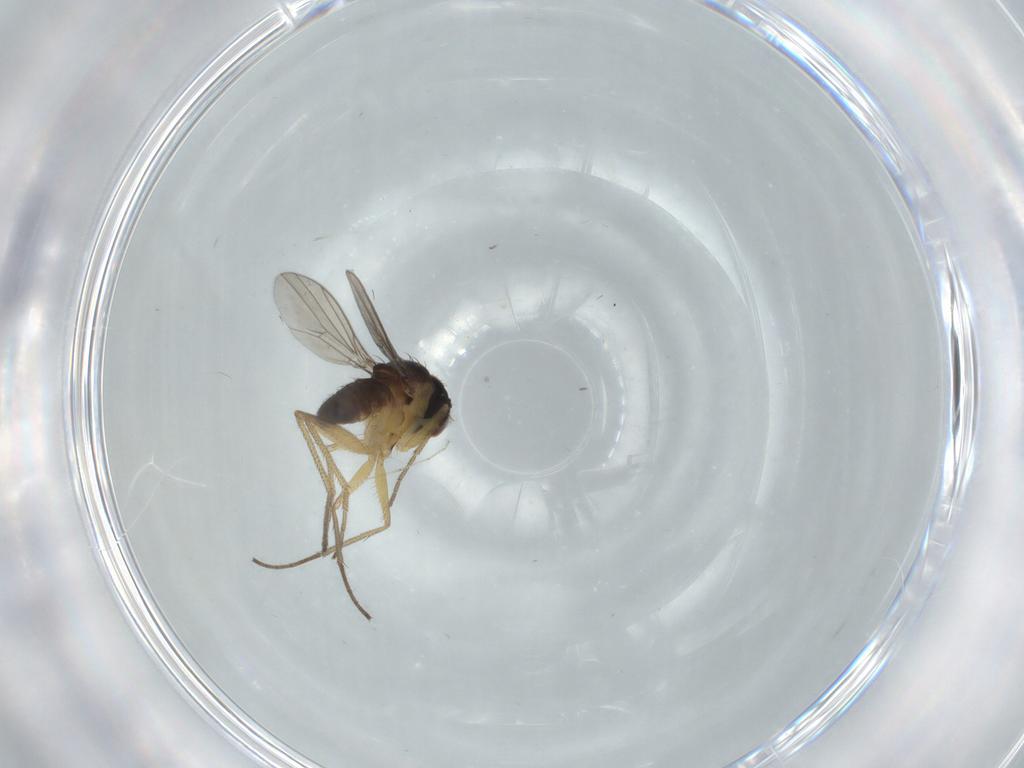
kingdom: Animalia
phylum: Arthropoda
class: Insecta
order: Diptera
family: Dolichopodidae
